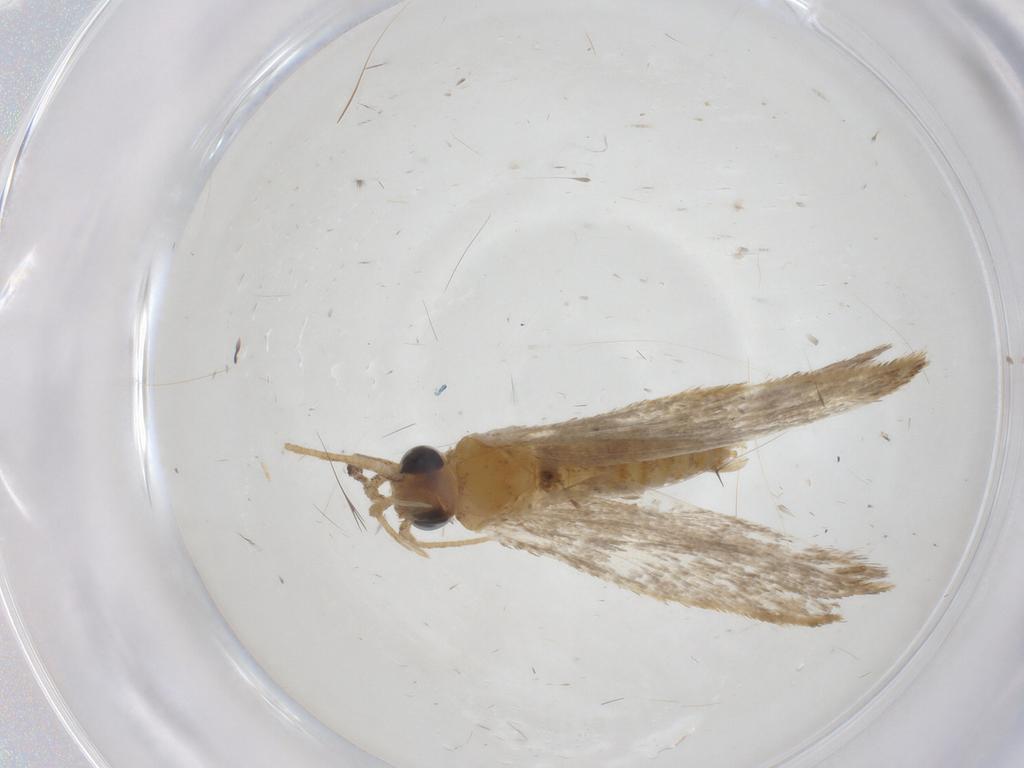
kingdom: Animalia
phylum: Arthropoda
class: Insecta
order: Lepidoptera
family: Oecophoridae
